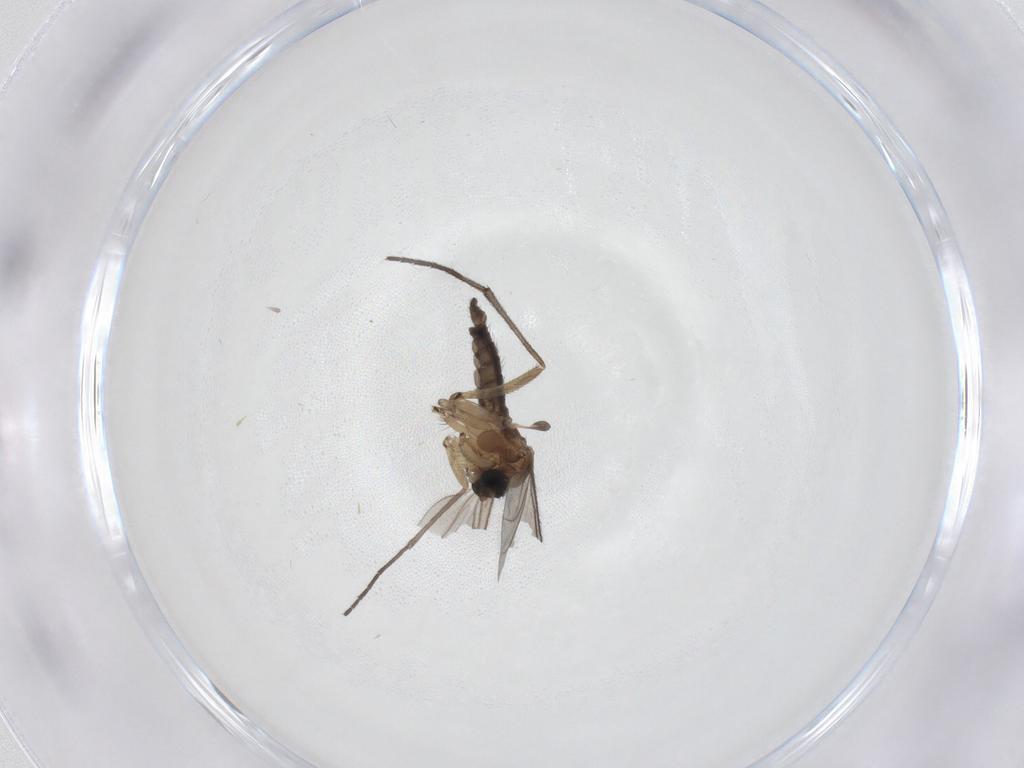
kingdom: Animalia
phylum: Arthropoda
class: Insecta
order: Diptera
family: Sciaridae
